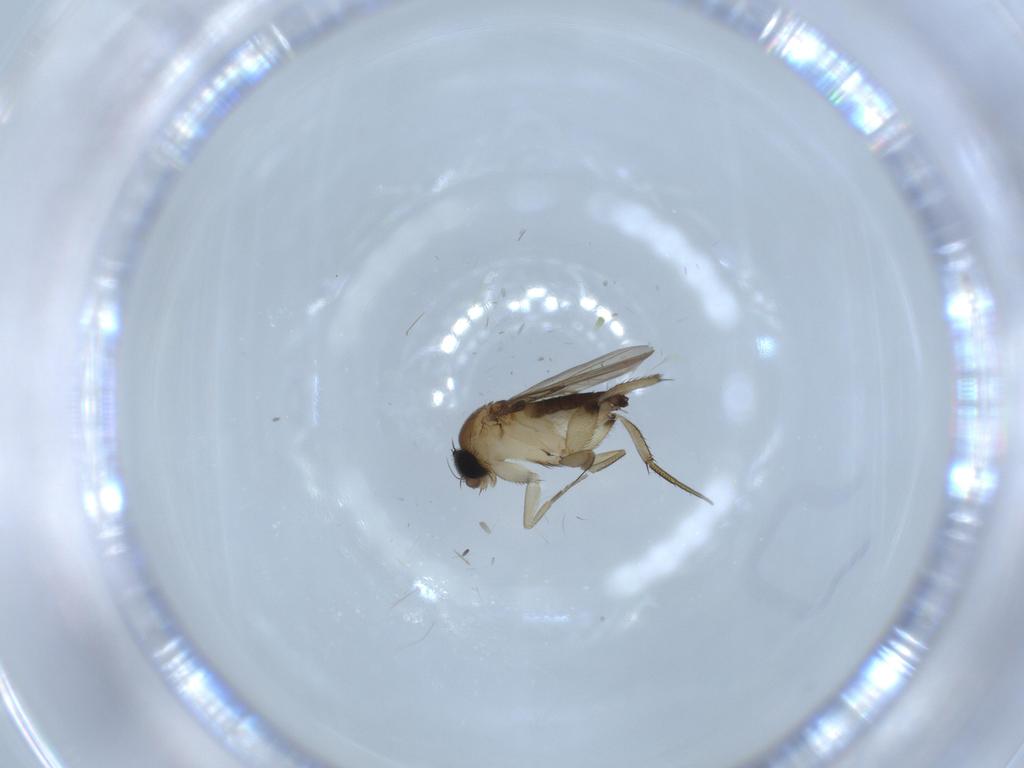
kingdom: Animalia
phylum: Arthropoda
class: Insecta
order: Diptera
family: Phoridae
